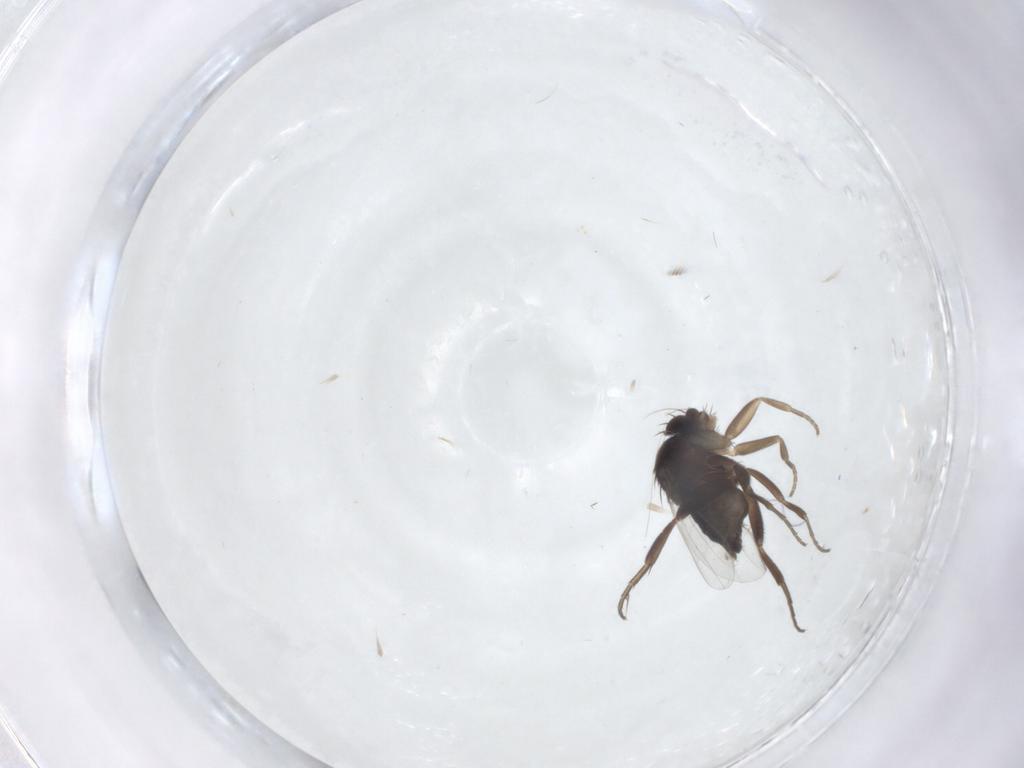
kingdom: Animalia
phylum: Arthropoda
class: Insecta
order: Diptera
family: Phoridae
